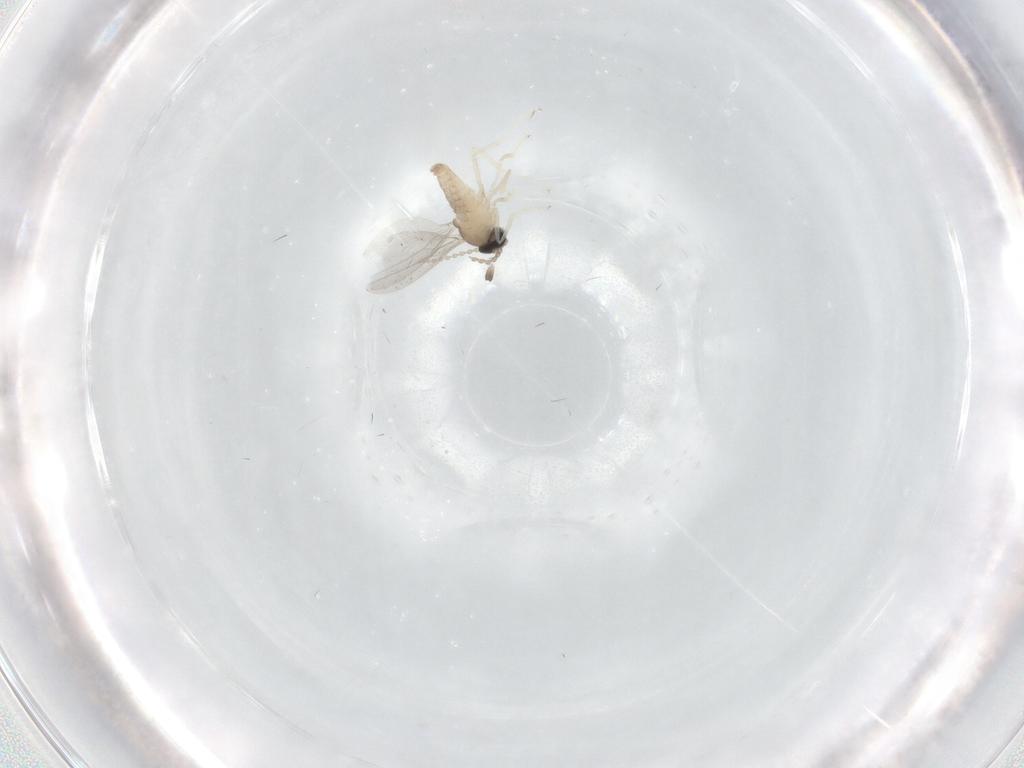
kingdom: Animalia
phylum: Arthropoda
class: Insecta
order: Diptera
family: Cecidomyiidae
